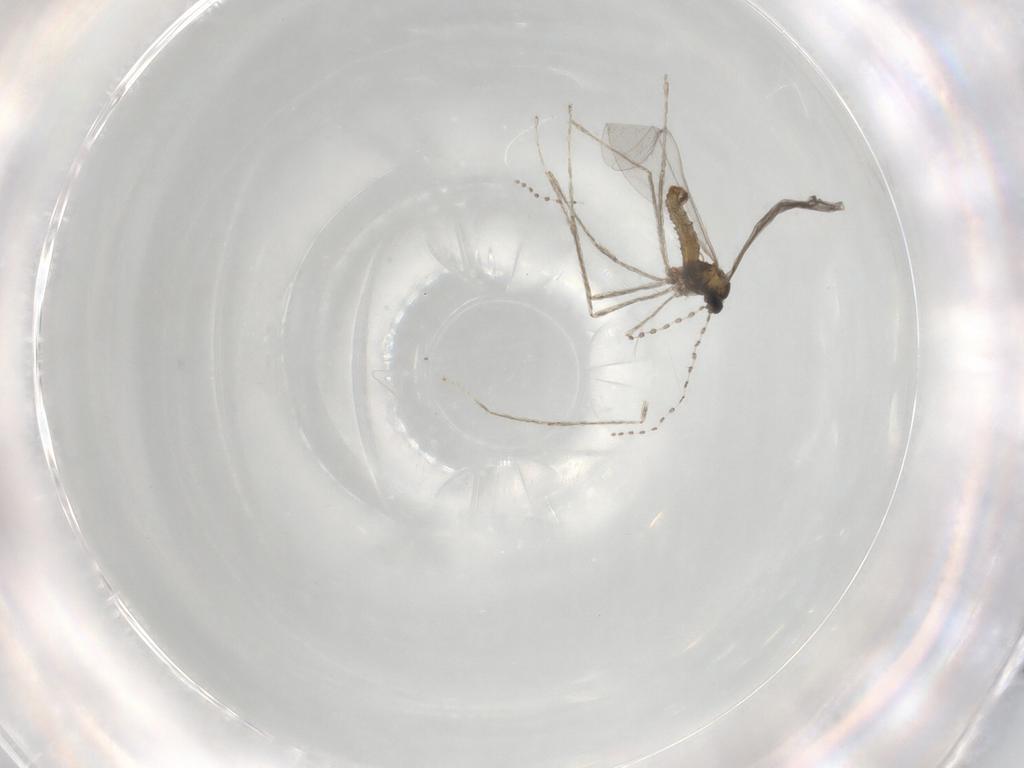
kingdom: Animalia
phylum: Arthropoda
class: Insecta
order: Diptera
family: Cecidomyiidae
